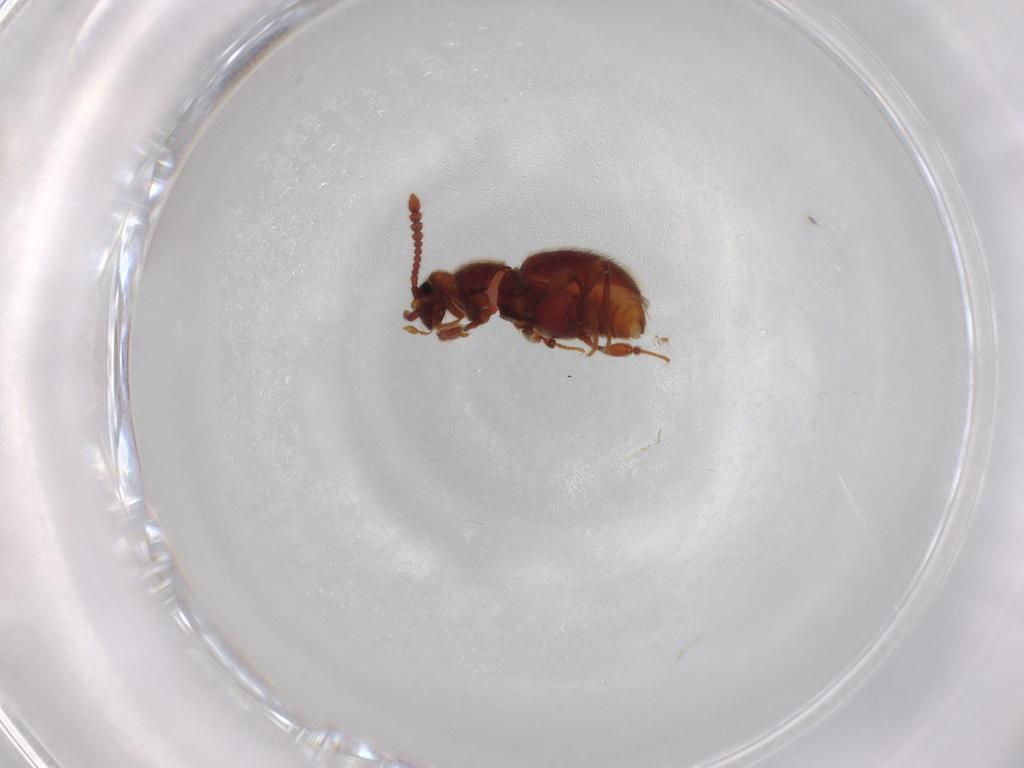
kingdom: Animalia
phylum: Arthropoda
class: Insecta
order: Coleoptera
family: Staphylinidae
